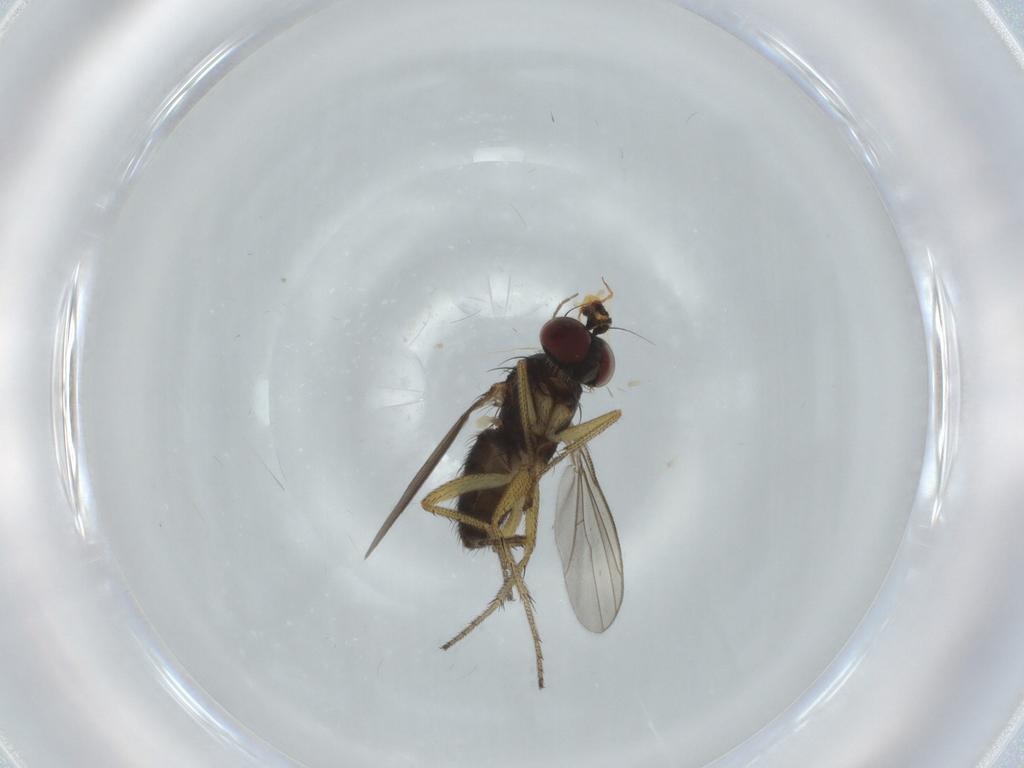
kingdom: Animalia
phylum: Arthropoda
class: Insecta
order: Diptera
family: Dolichopodidae
